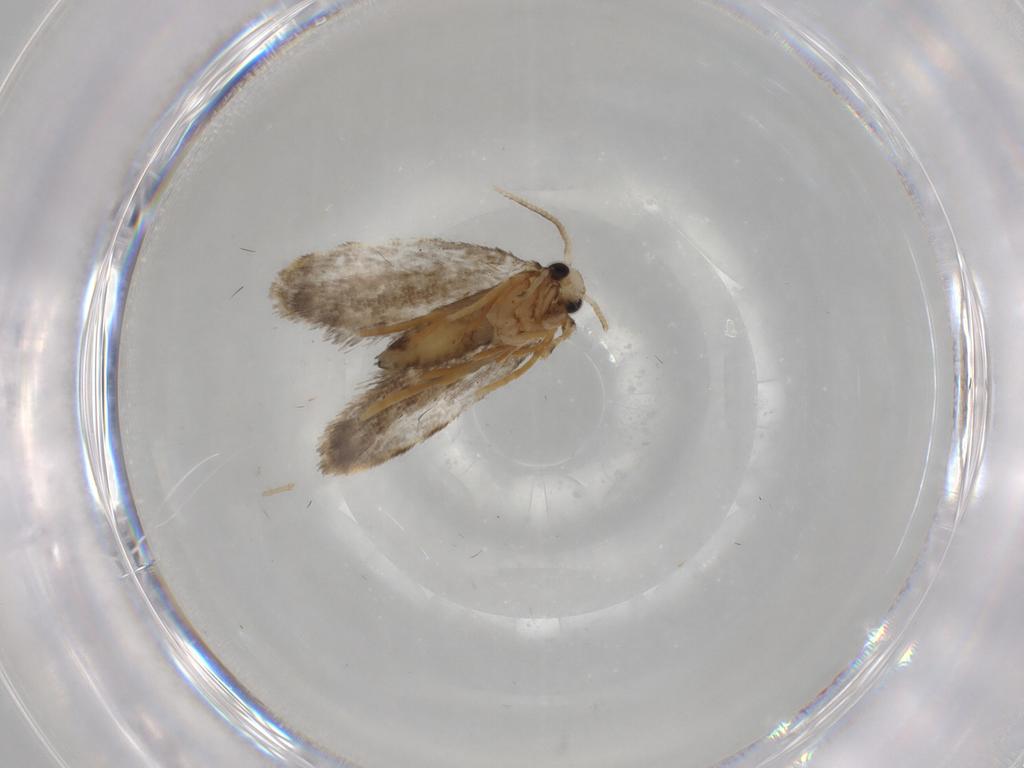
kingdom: Animalia
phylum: Arthropoda
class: Insecta
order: Lepidoptera
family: Psychidae
